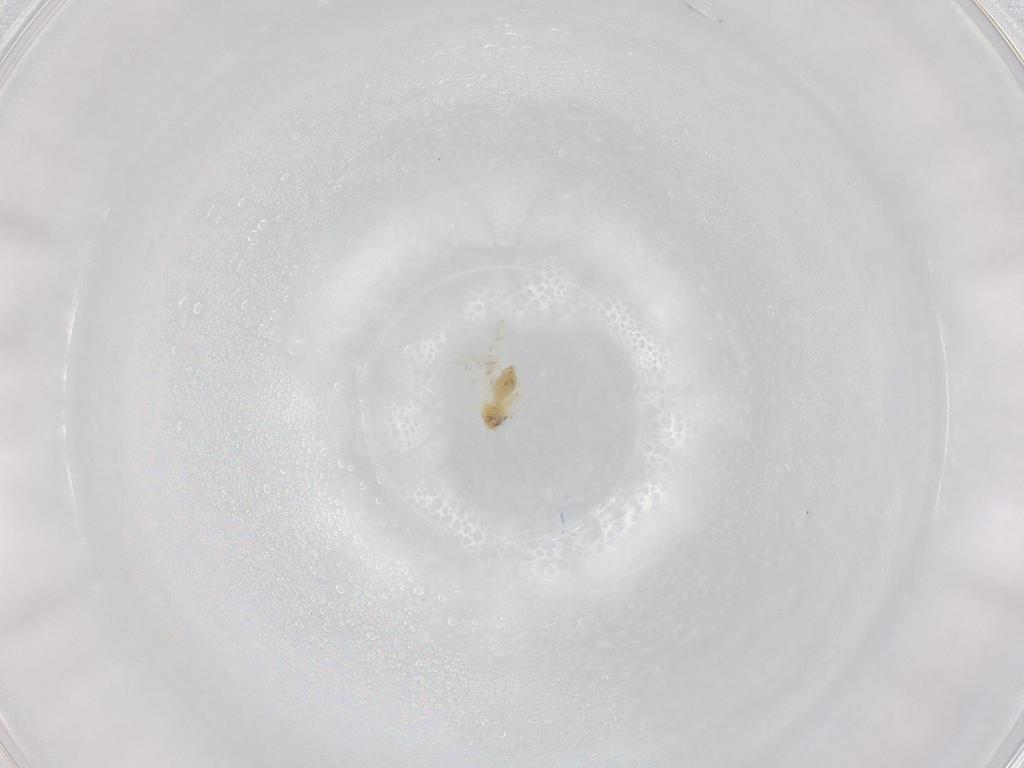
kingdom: Animalia
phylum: Arthropoda
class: Insecta
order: Hemiptera
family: Aleyrodidae
